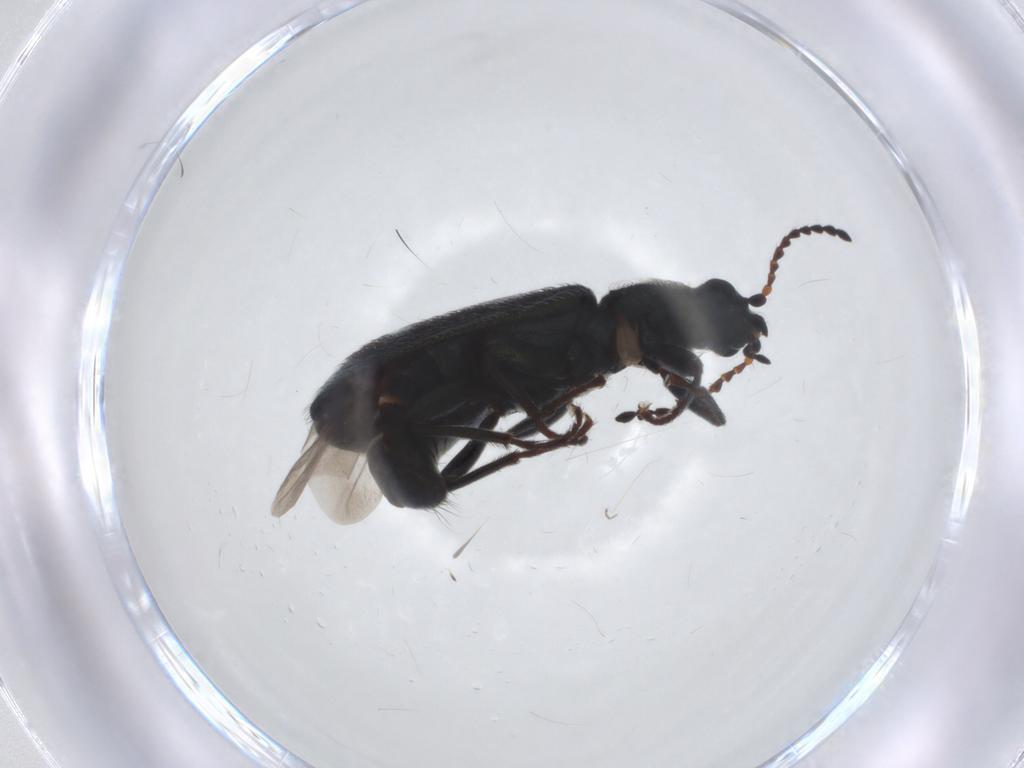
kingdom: Animalia
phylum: Arthropoda
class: Insecta
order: Coleoptera
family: Melyridae
